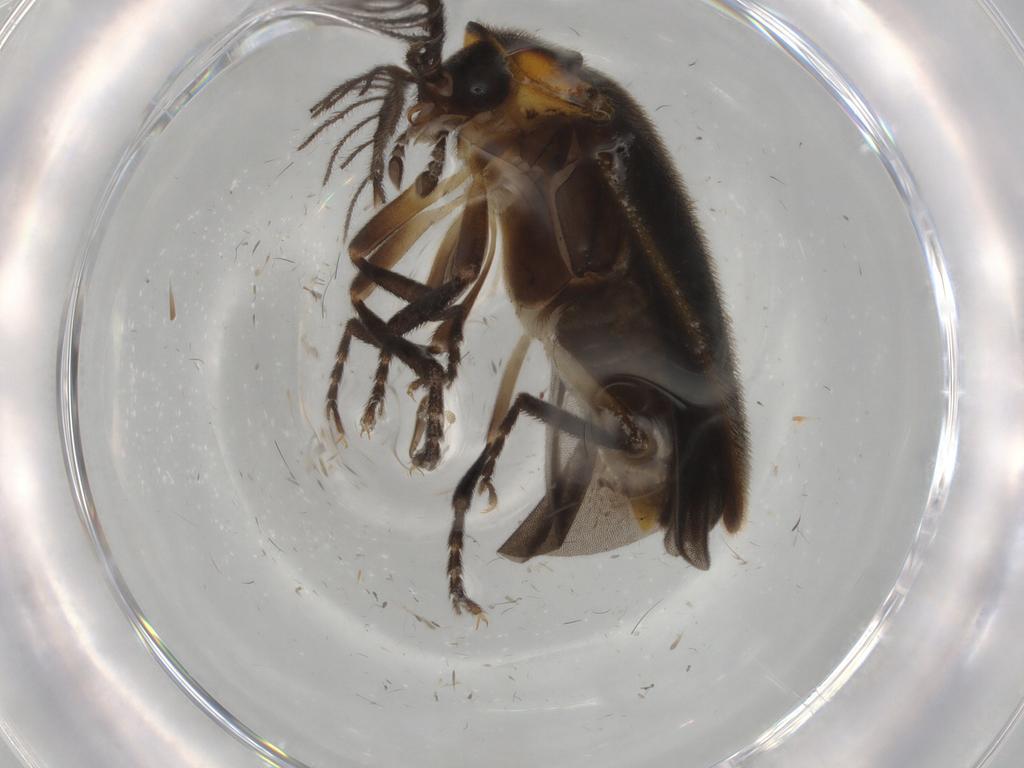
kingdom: Animalia
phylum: Arthropoda
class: Insecta
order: Coleoptera
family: Lampyridae
